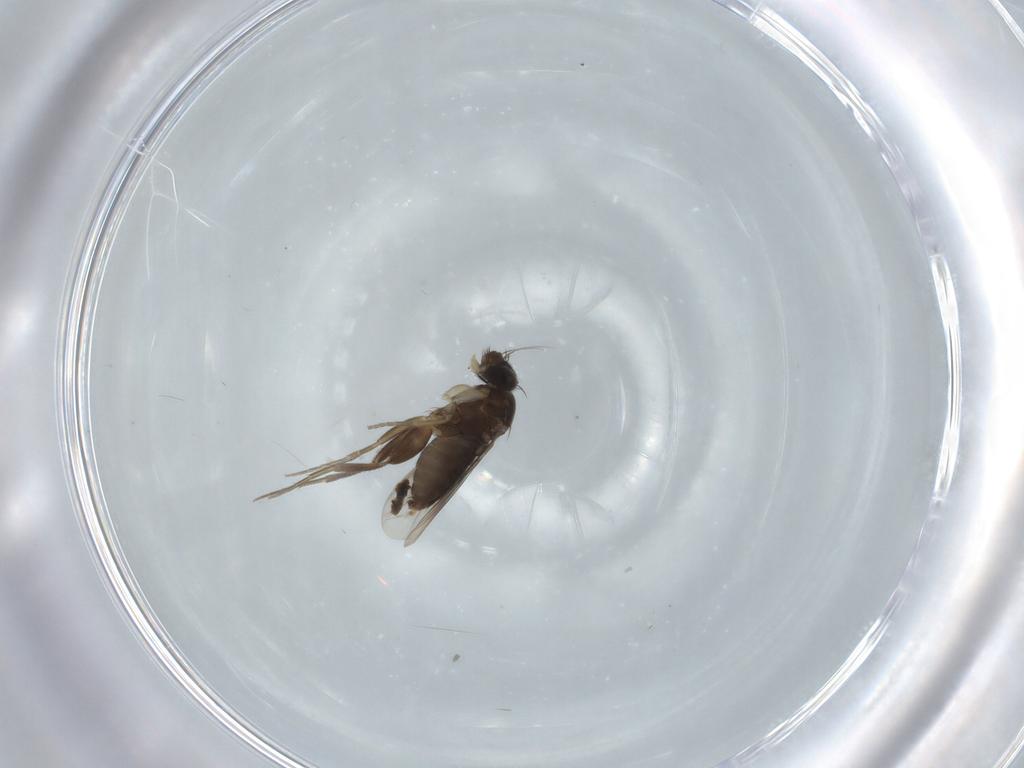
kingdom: Animalia
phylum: Arthropoda
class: Insecta
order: Diptera
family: Phoridae
